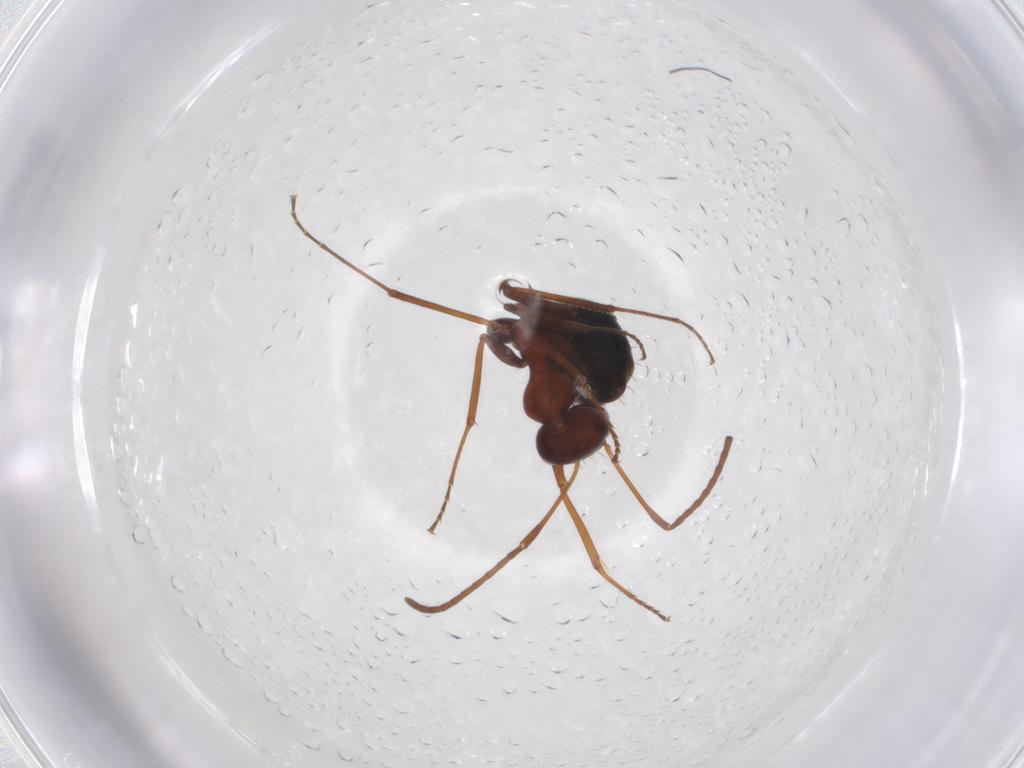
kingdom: Animalia
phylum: Arthropoda
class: Insecta
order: Hymenoptera
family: Formicidae
